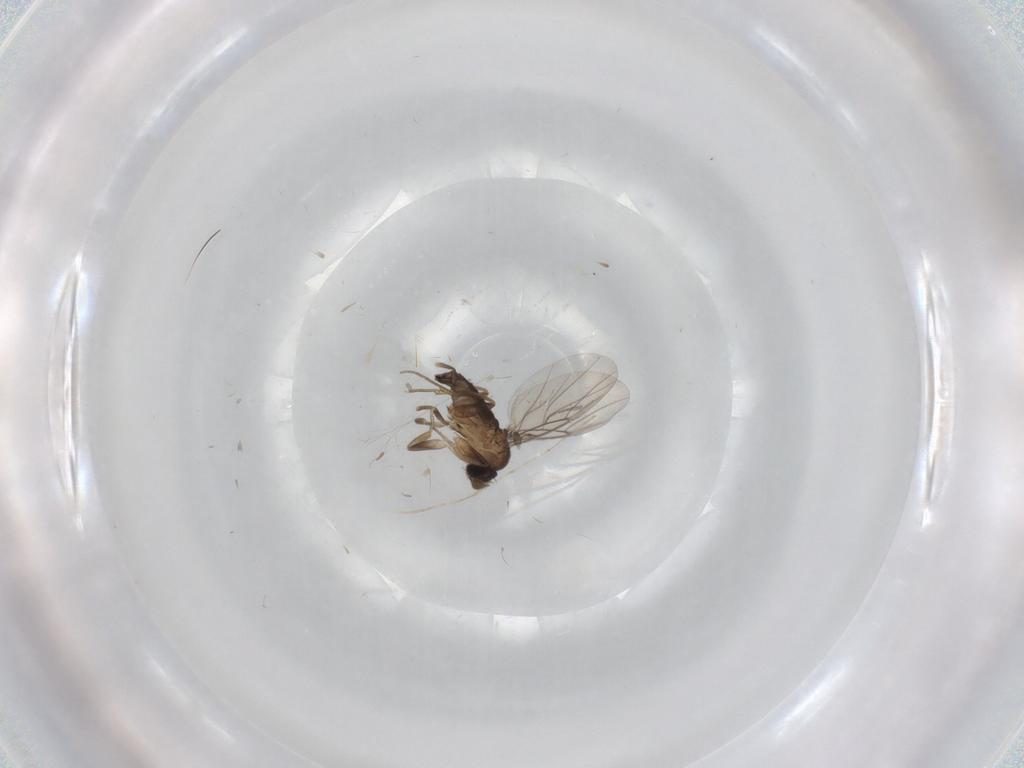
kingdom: Animalia
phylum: Arthropoda
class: Insecta
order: Diptera
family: Phoridae
